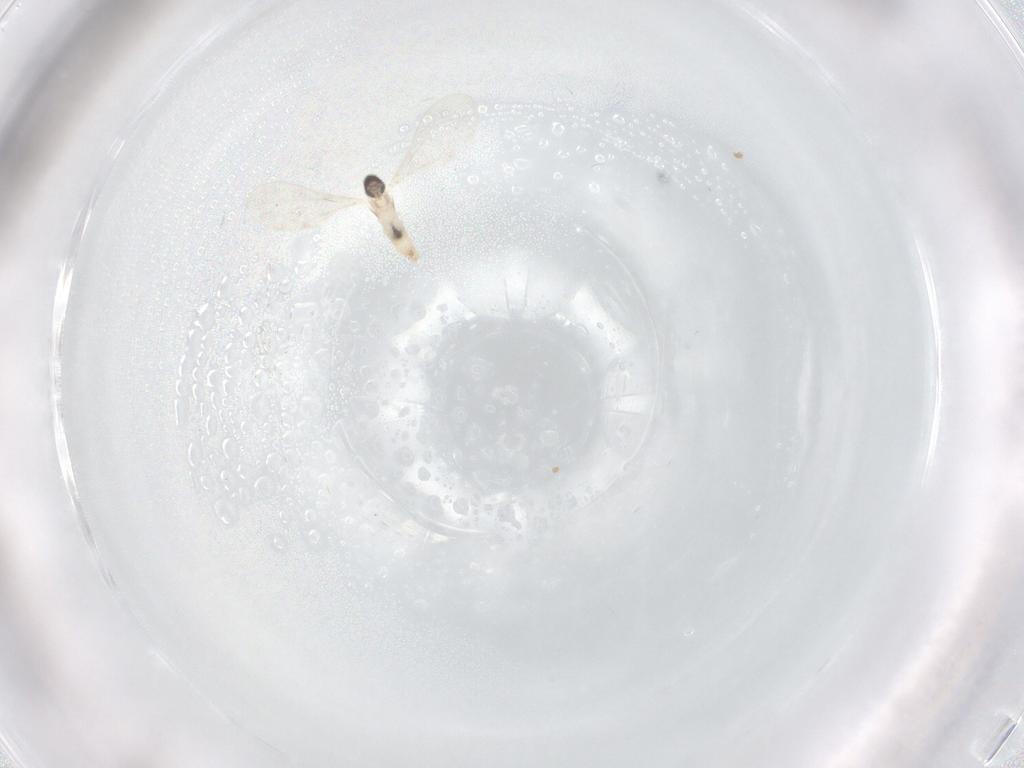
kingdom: Animalia
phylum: Arthropoda
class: Insecta
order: Diptera
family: Cecidomyiidae
